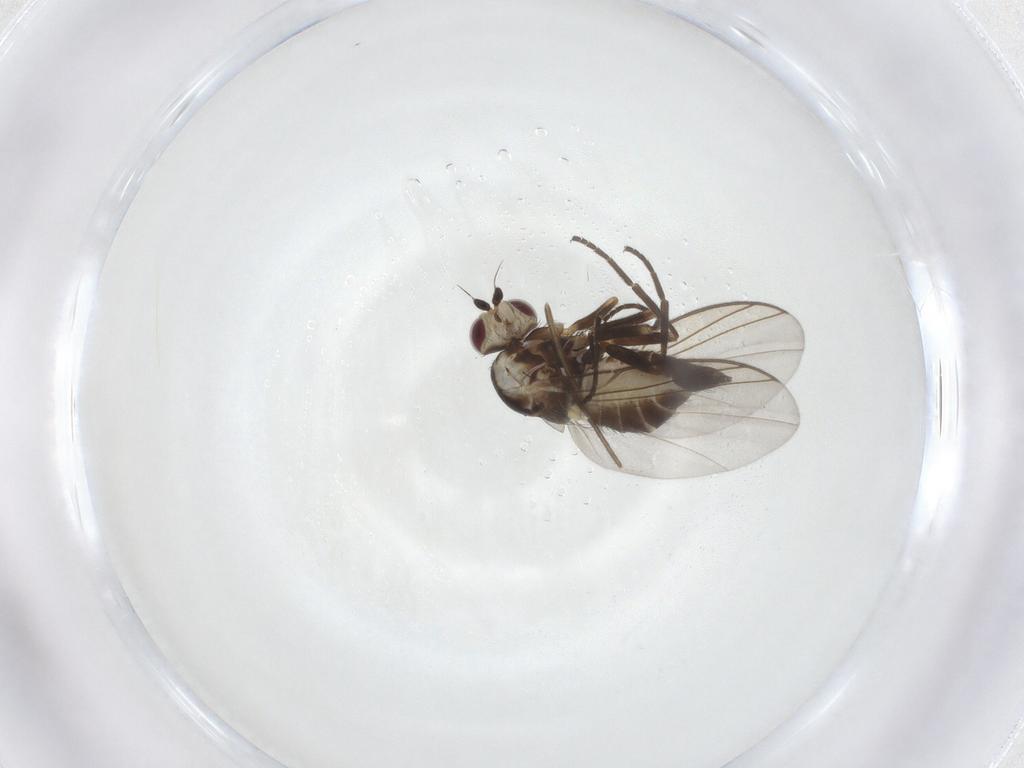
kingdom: Animalia
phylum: Arthropoda
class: Insecta
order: Diptera
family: Agromyzidae
